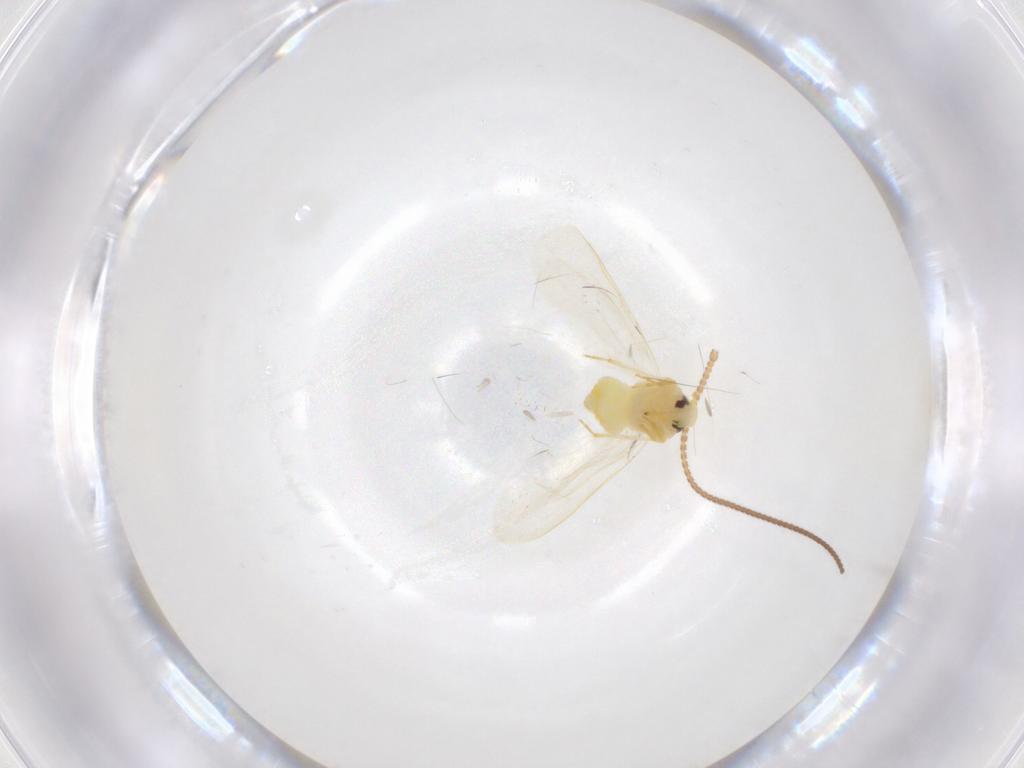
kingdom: Animalia
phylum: Arthropoda
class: Insecta
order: Hemiptera
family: Aleyrodidae
